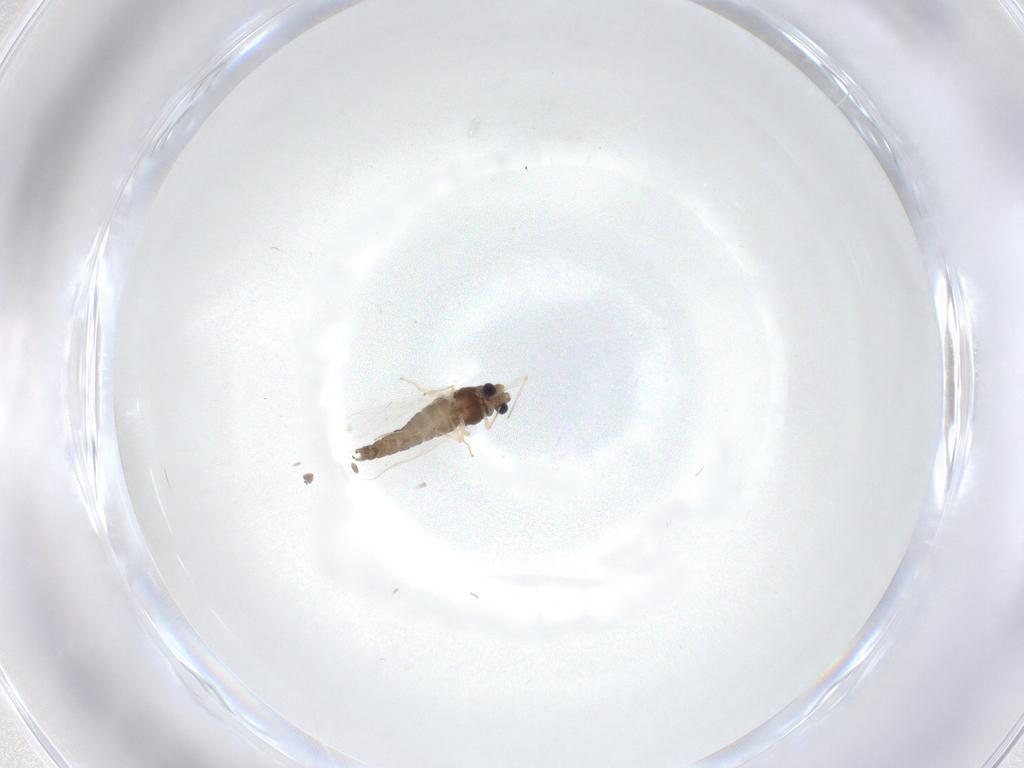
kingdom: Animalia
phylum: Arthropoda
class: Insecta
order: Diptera
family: Chironomidae
